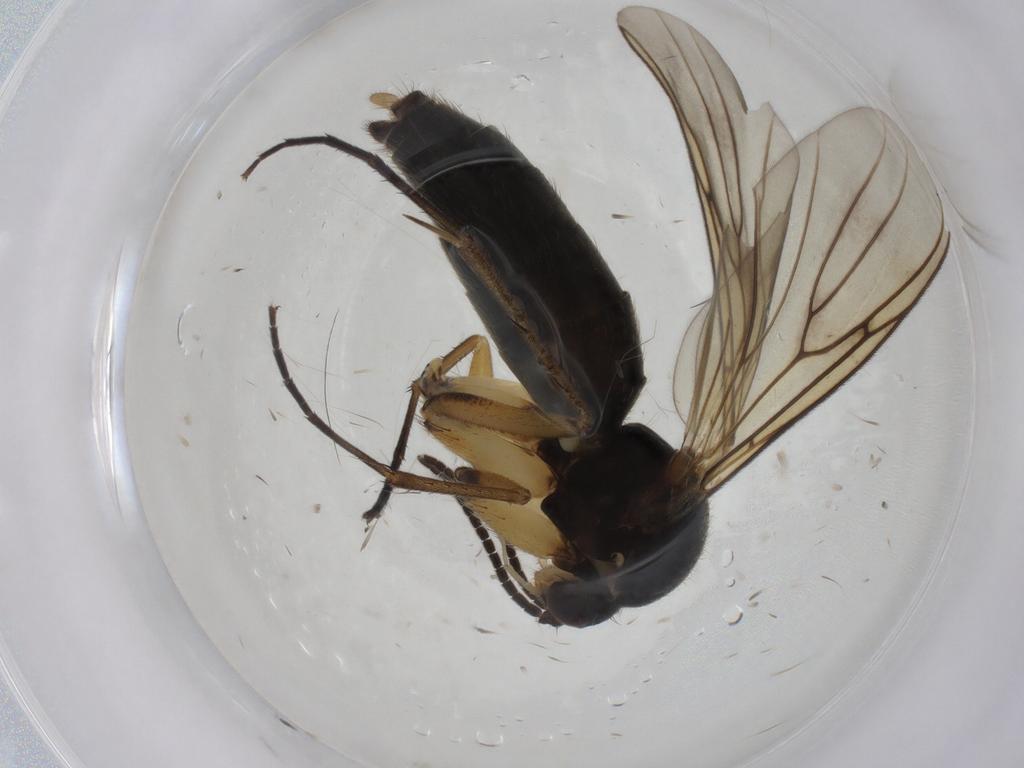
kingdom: Animalia
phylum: Arthropoda
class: Insecta
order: Diptera
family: Mycetophilidae
